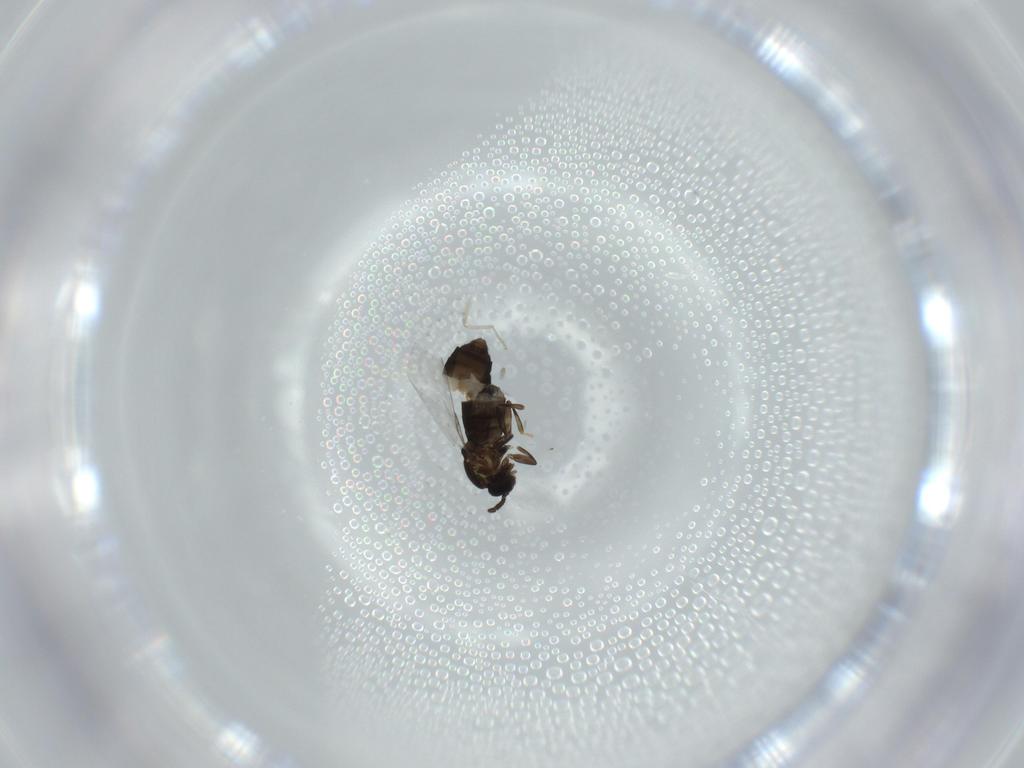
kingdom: Animalia
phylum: Arthropoda
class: Insecta
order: Diptera
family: Scatopsidae
